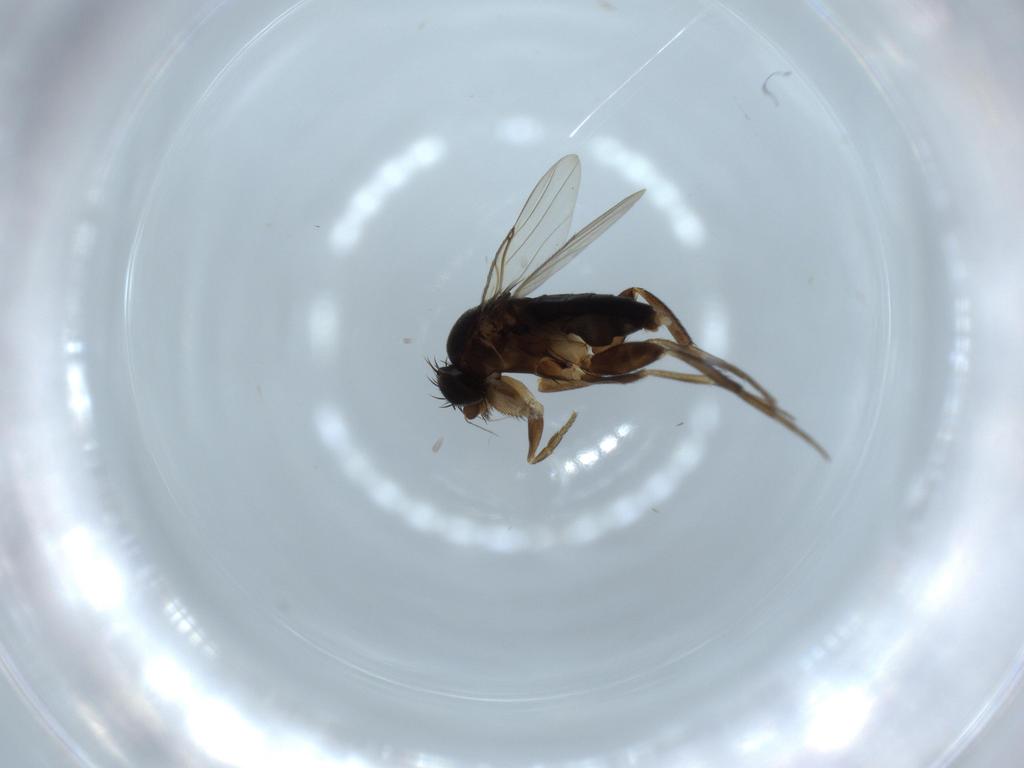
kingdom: Animalia
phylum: Arthropoda
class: Insecta
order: Diptera
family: Phoridae
